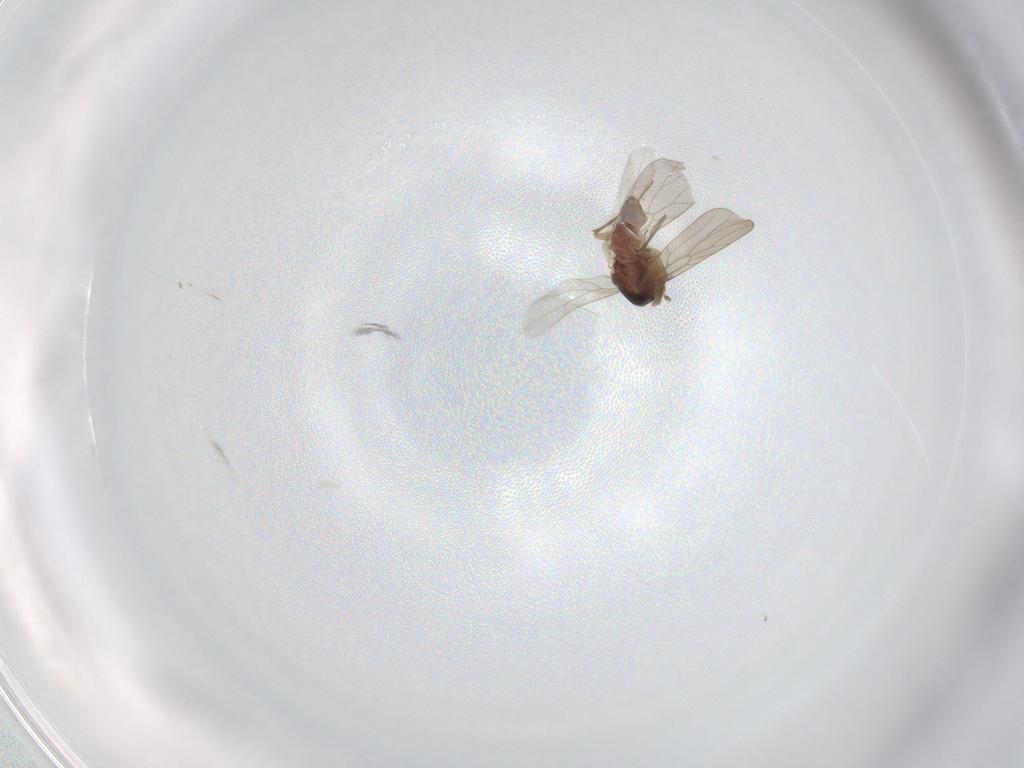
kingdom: Animalia
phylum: Arthropoda
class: Insecta
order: Psocodea
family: Lepidopsocidae
